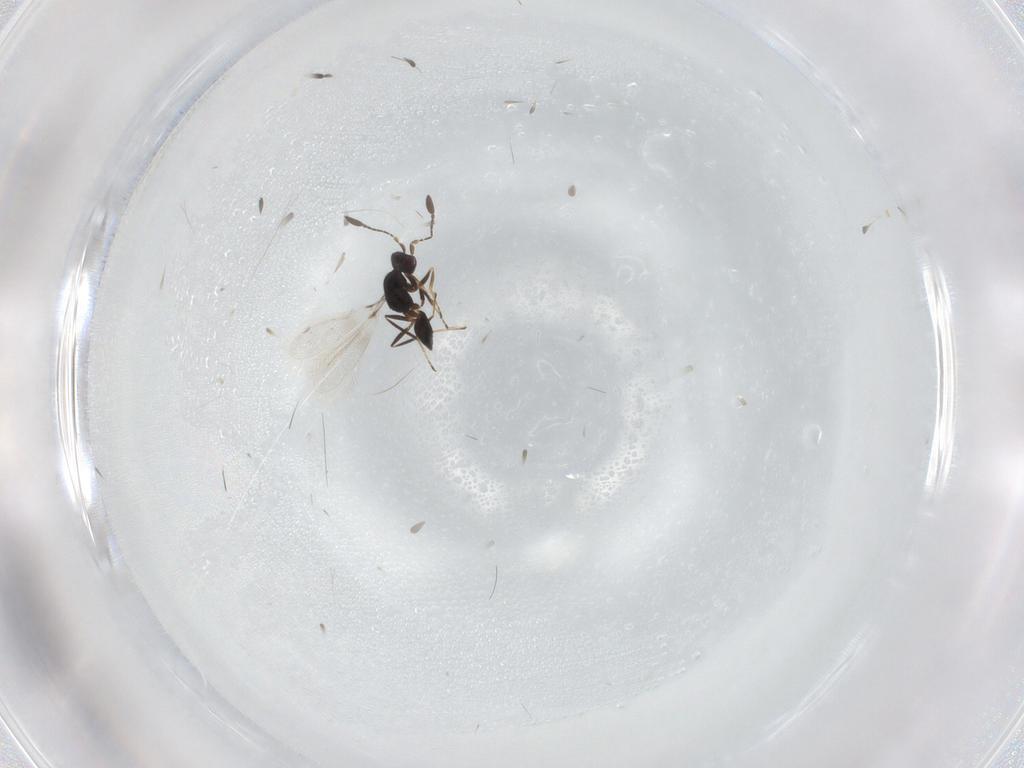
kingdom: Animalia
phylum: Arthropoda
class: Insecta
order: Hymenoptera
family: Mymaridae
